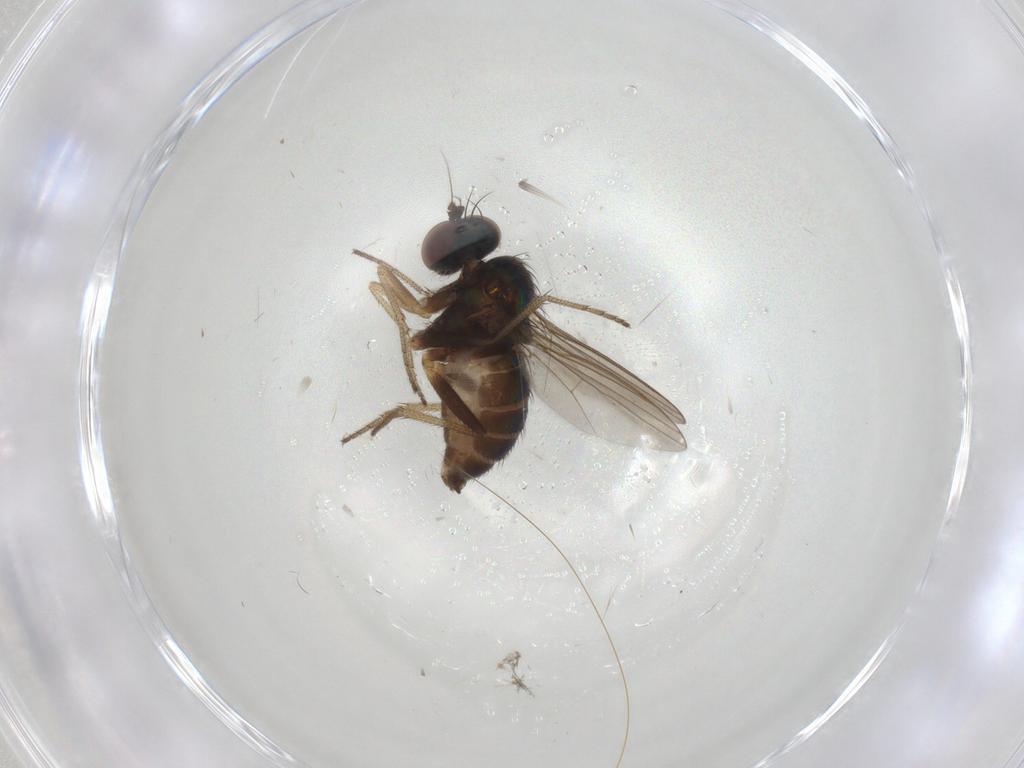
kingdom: Animalia
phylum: Arthropoda
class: Insecta
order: Diptera
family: Dolichopodidae
